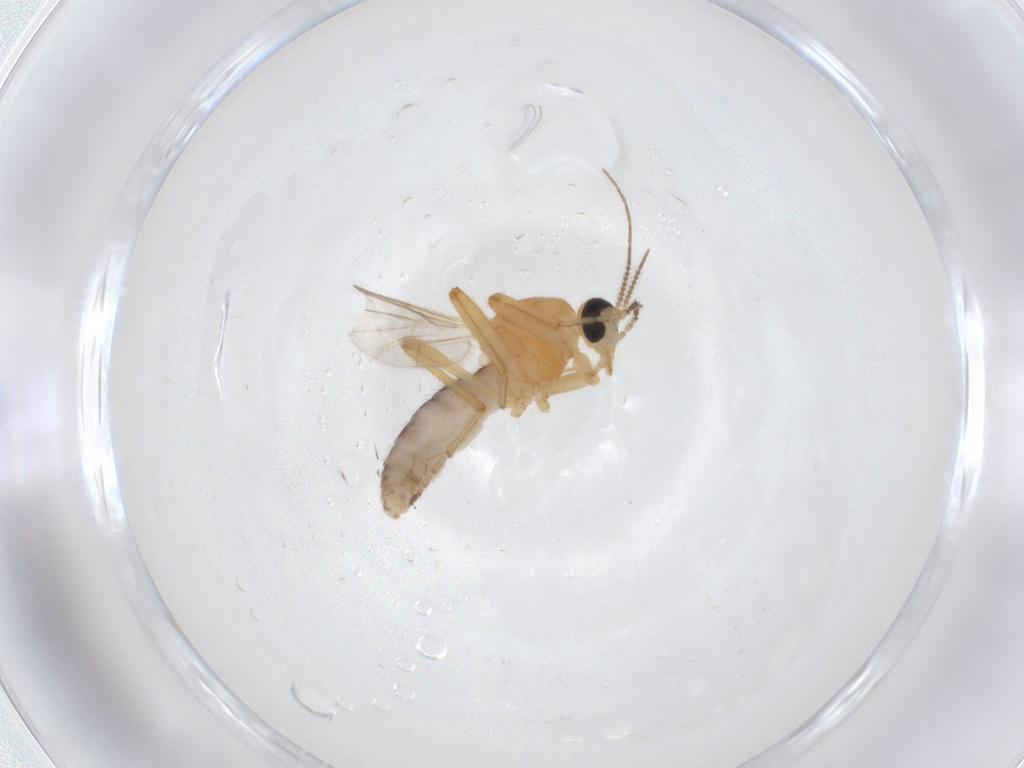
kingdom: Animalia
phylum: Arthropoda
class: Insecta
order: Diptera
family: Ceratopogonidae
